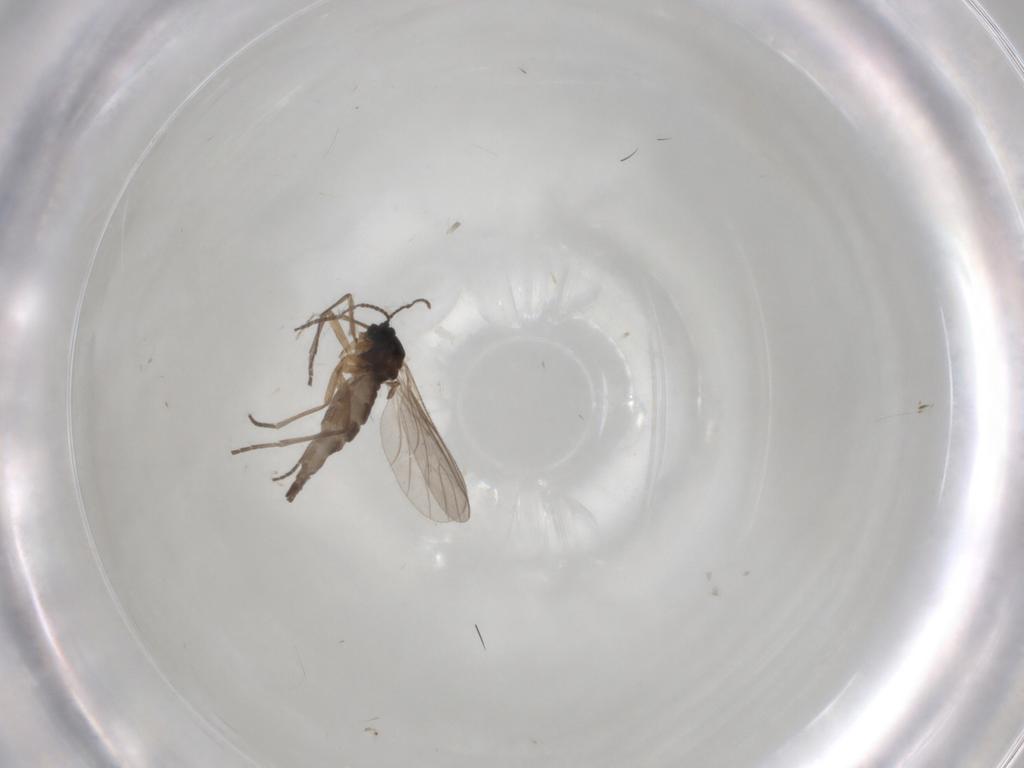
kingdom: Animalia
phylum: Arthropoda
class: Insecta
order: Diptera
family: Sciaridae
